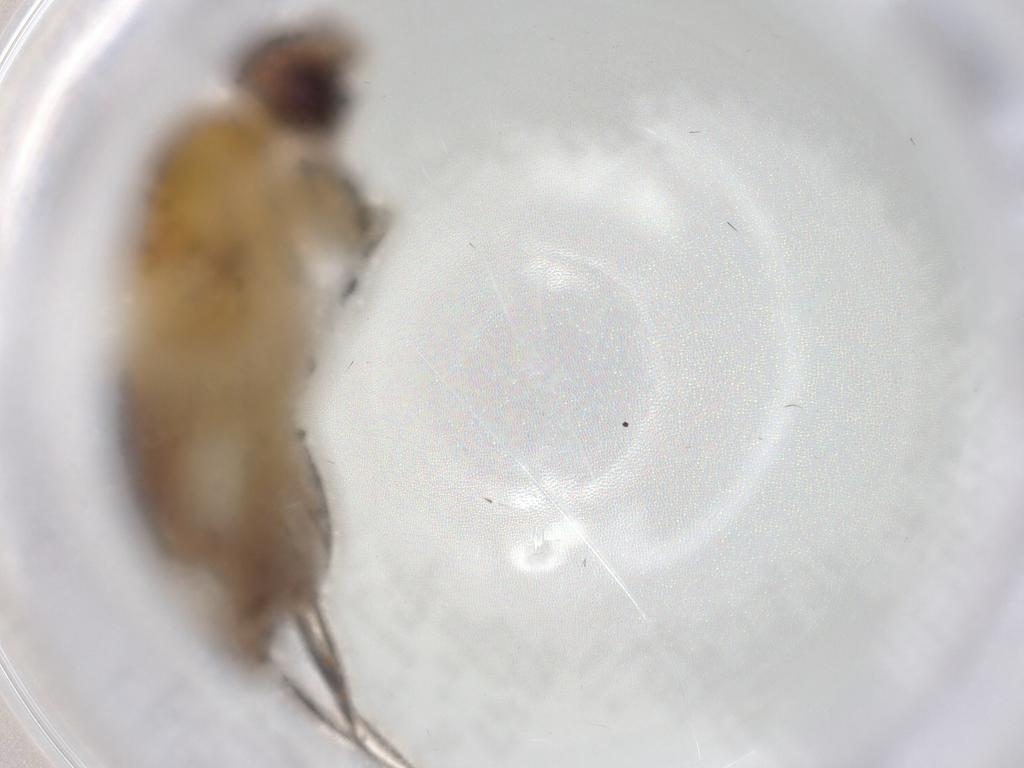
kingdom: Animalia
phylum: Arthropoda
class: Insecta
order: Diptera
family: Clusiidae
